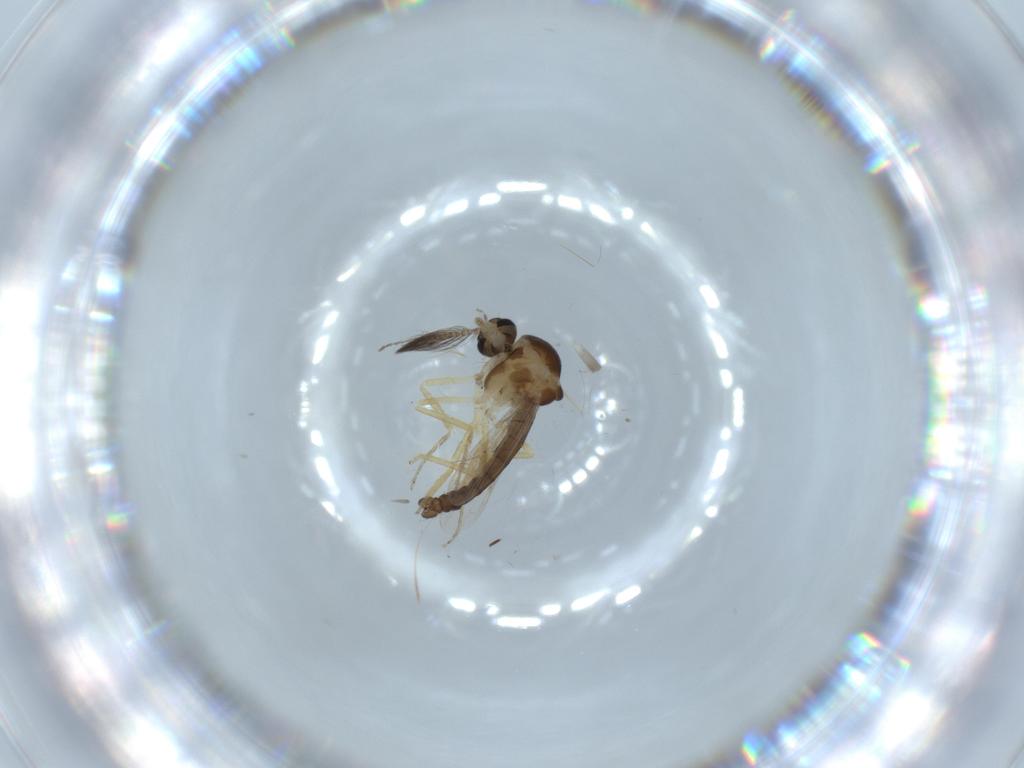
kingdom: Animalia
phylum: Arthropoda
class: Insecta
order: Diptera
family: Ceratopogonidae
